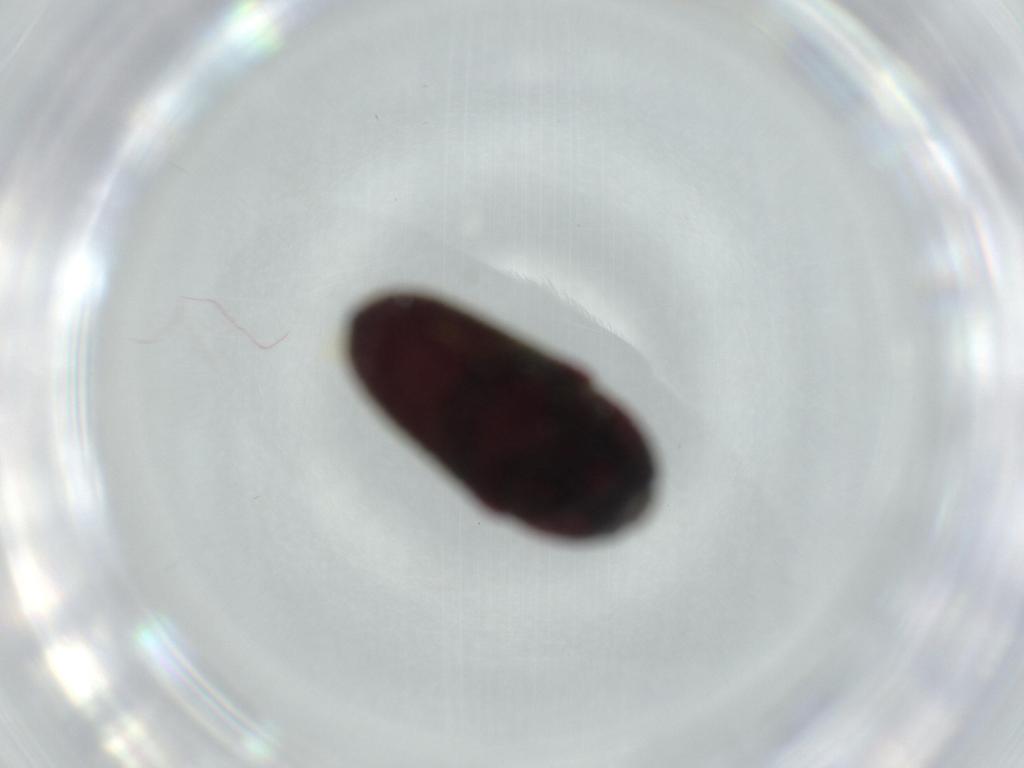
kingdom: Animalia
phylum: Arthropoda
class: Insecta
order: Coleoptera
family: Throscidae
